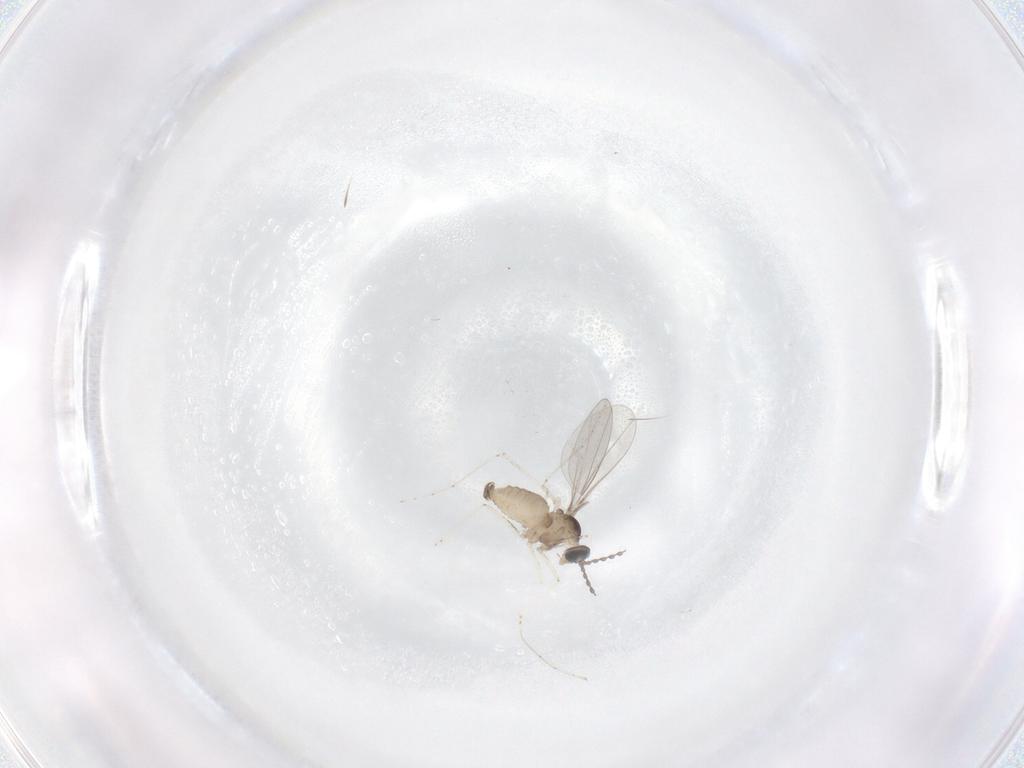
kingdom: Animalia
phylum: Arthropoda
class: Insecta
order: Diptera
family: Cecidomyiidae
